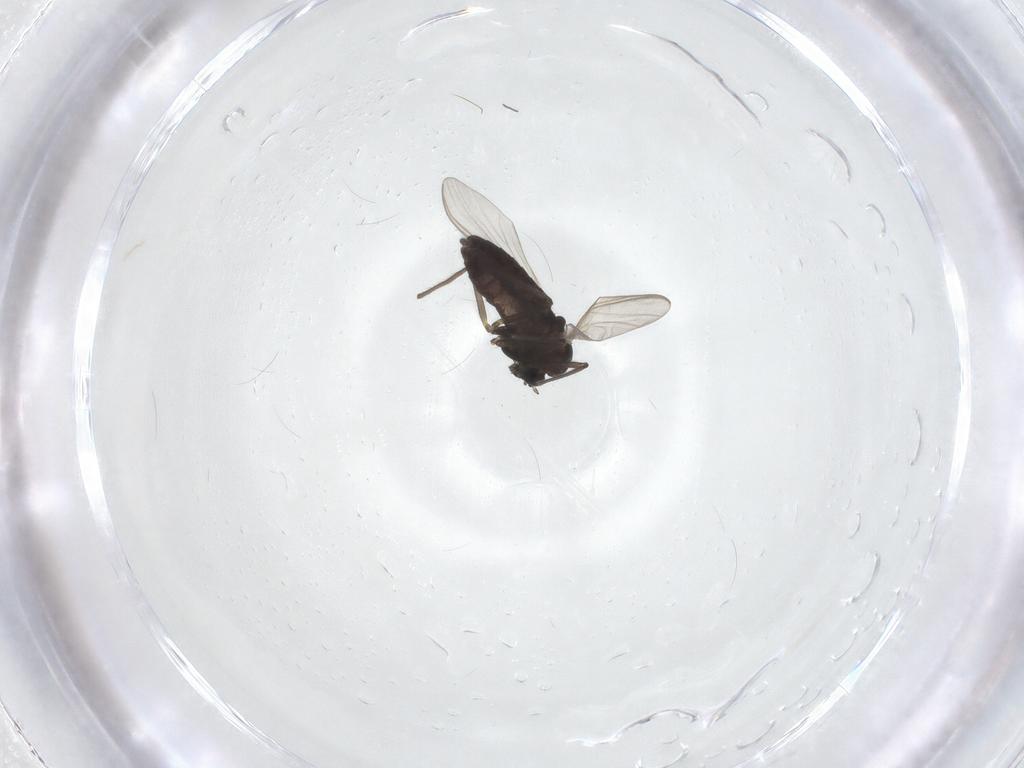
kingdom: Animalia
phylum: Arthropoda
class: Insecta
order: Diptera
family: Chironomidae
